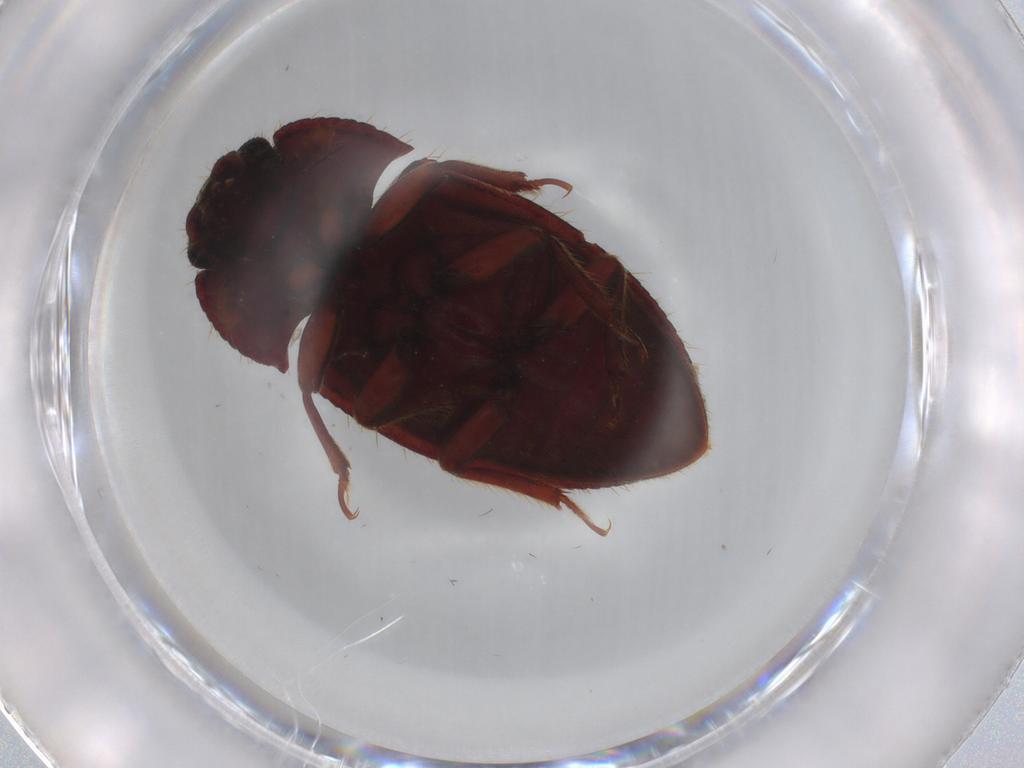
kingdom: Animalia
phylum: Arthropoda
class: Insecta
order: Coleoptera
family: Biphyllidae
